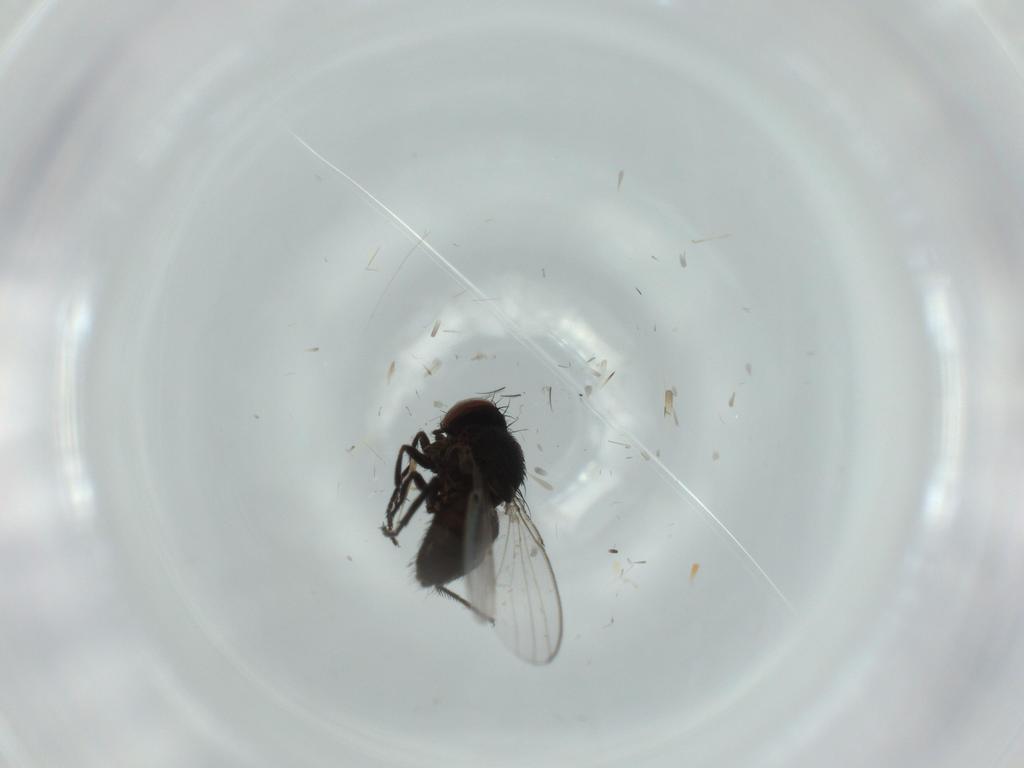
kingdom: Animalia
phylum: Arthropoda
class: Insecta
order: Diptera
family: Milichiidae
